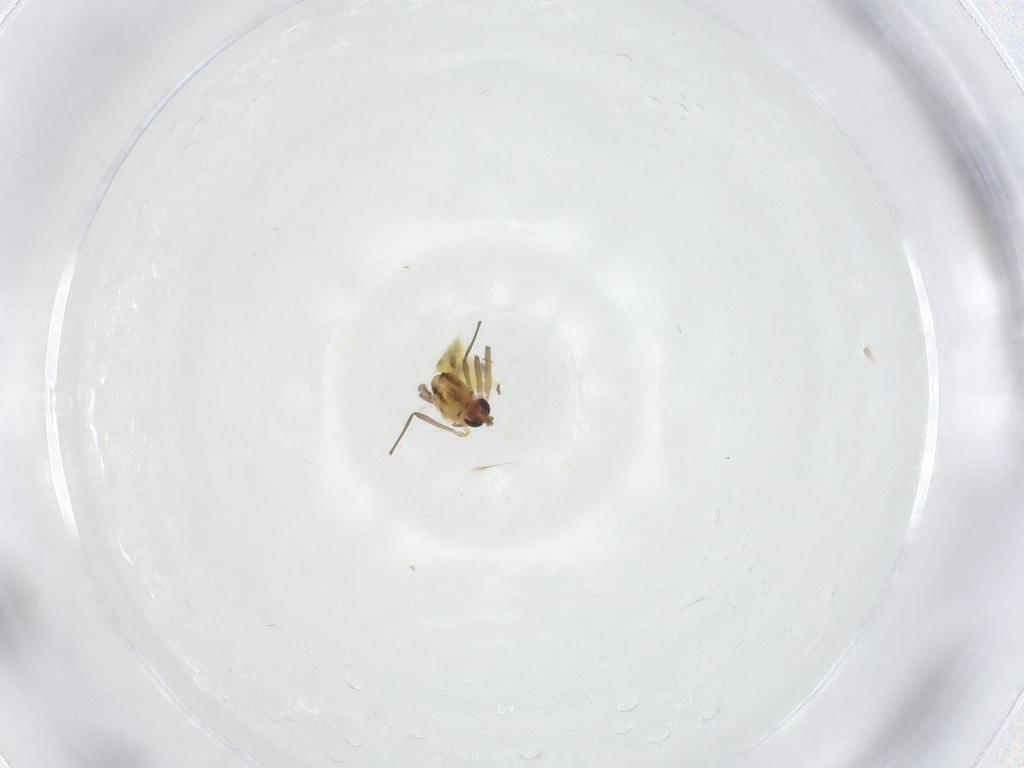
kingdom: Animalia
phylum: Arthropoda
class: Insecta
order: Diptera
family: Chironomidae
